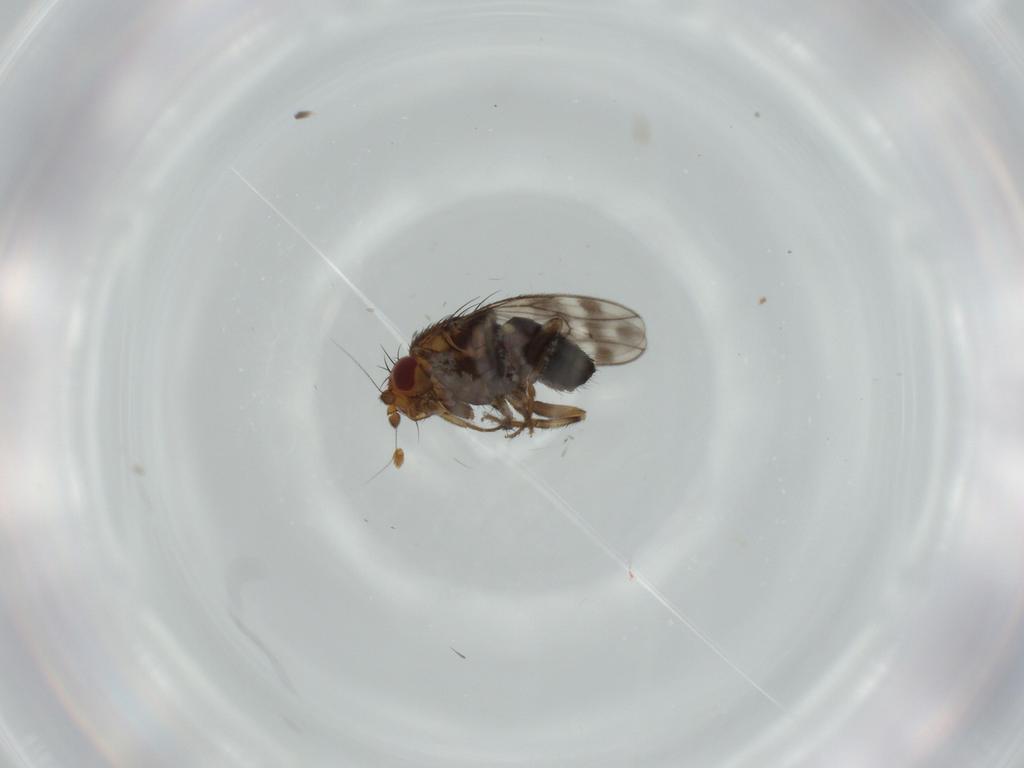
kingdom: Animalia
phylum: Arthropoda
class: Insecta
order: Diptera
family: Sphaeroceridae
